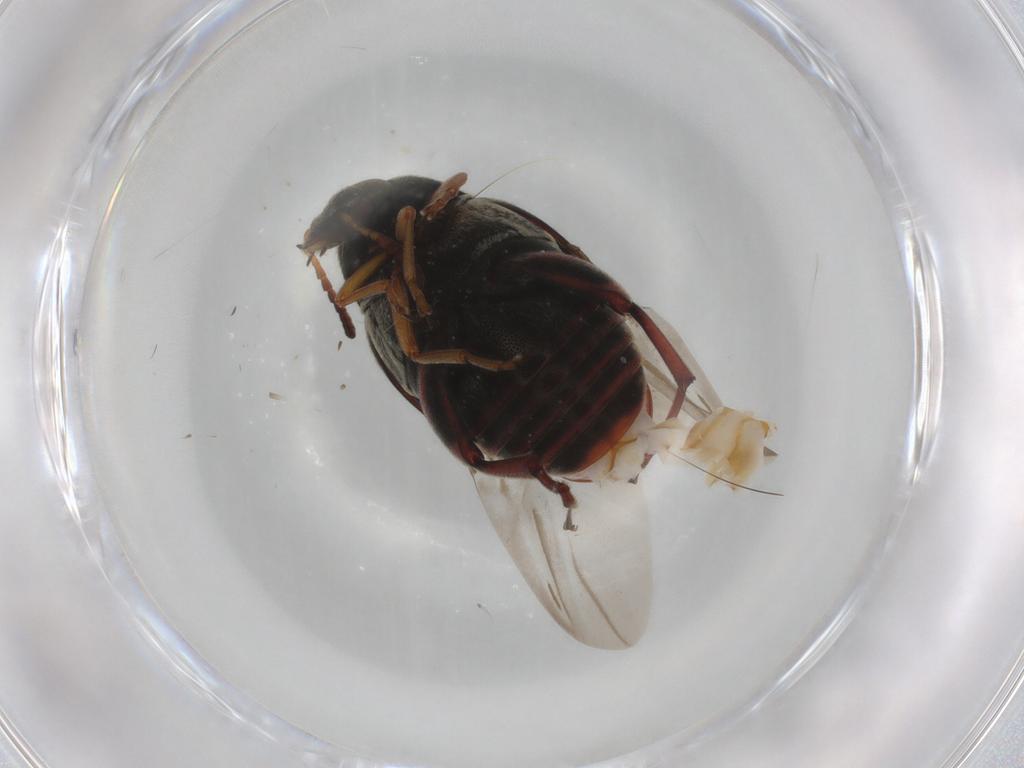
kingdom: Animalia
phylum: Arthropoda
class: Insecta
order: Coleoptera
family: Chrysomelidae
